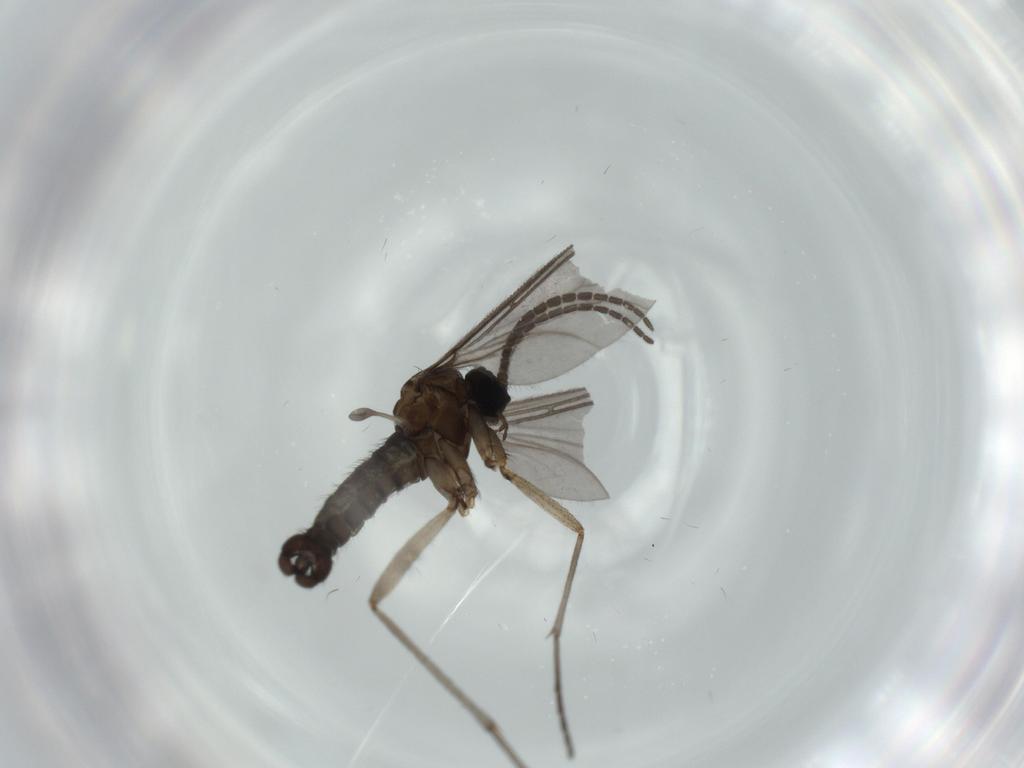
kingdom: Animalia
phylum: Arthropoda
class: Insecta
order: Diptera
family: Sciaridae
